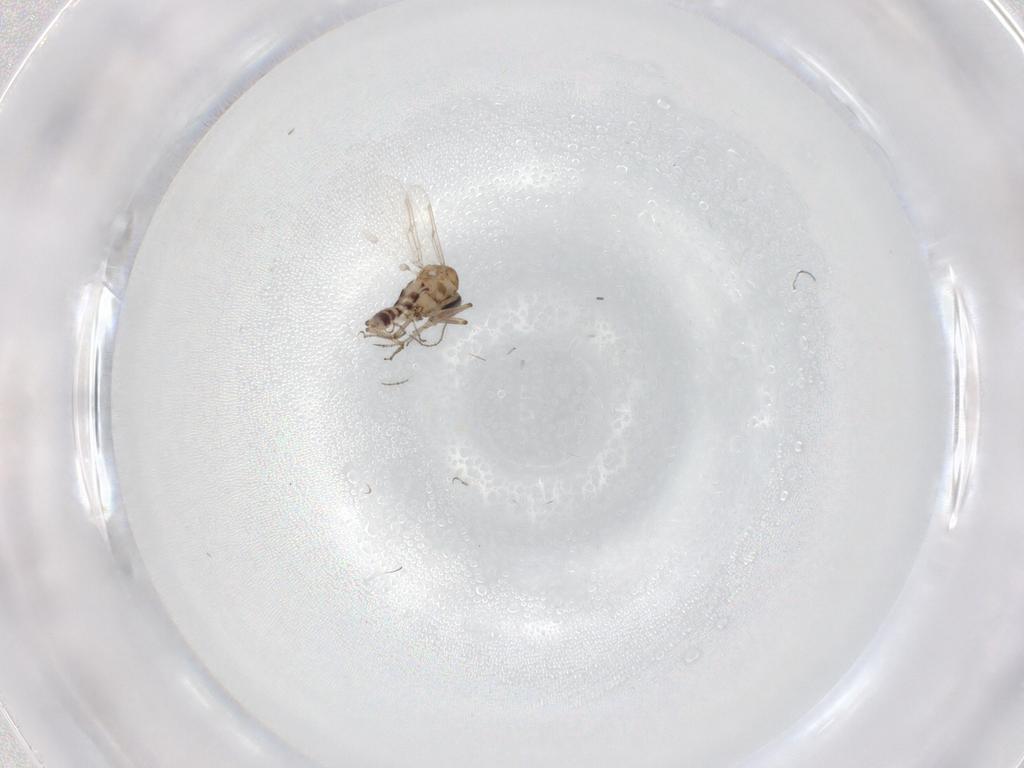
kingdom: Animalia
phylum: Arthropoda
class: Insecta
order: Diptera
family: Ceratopogonidae
